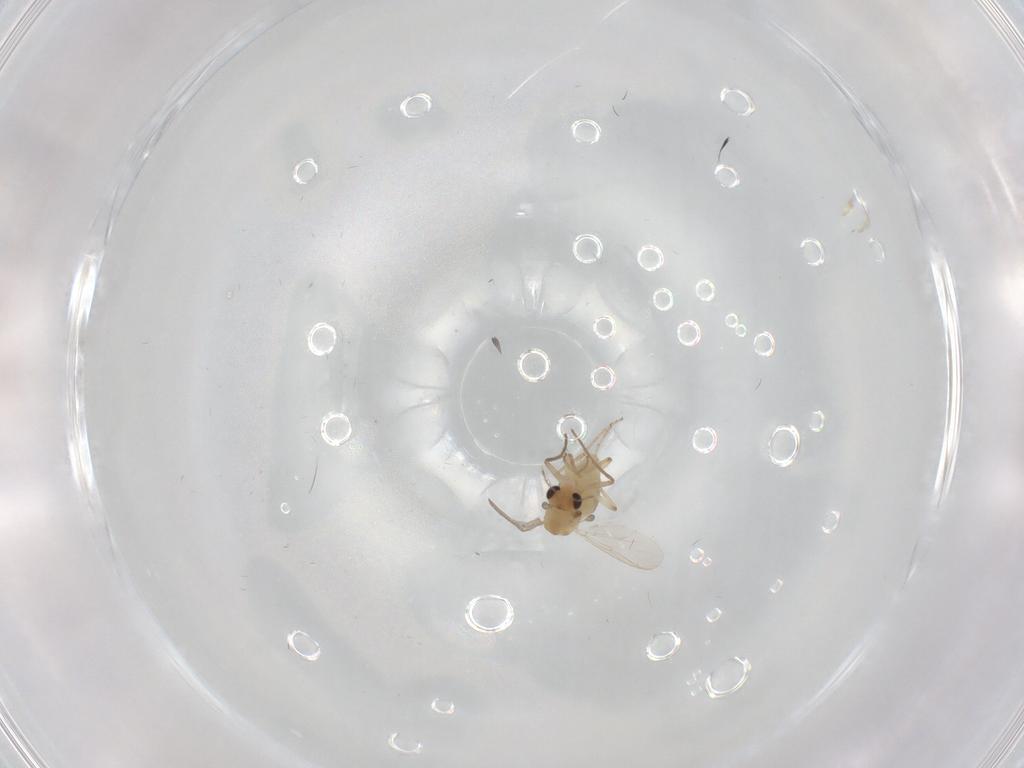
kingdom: Animalia
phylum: Arthropoda
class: Insecta
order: Diptera
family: Chironomidae
